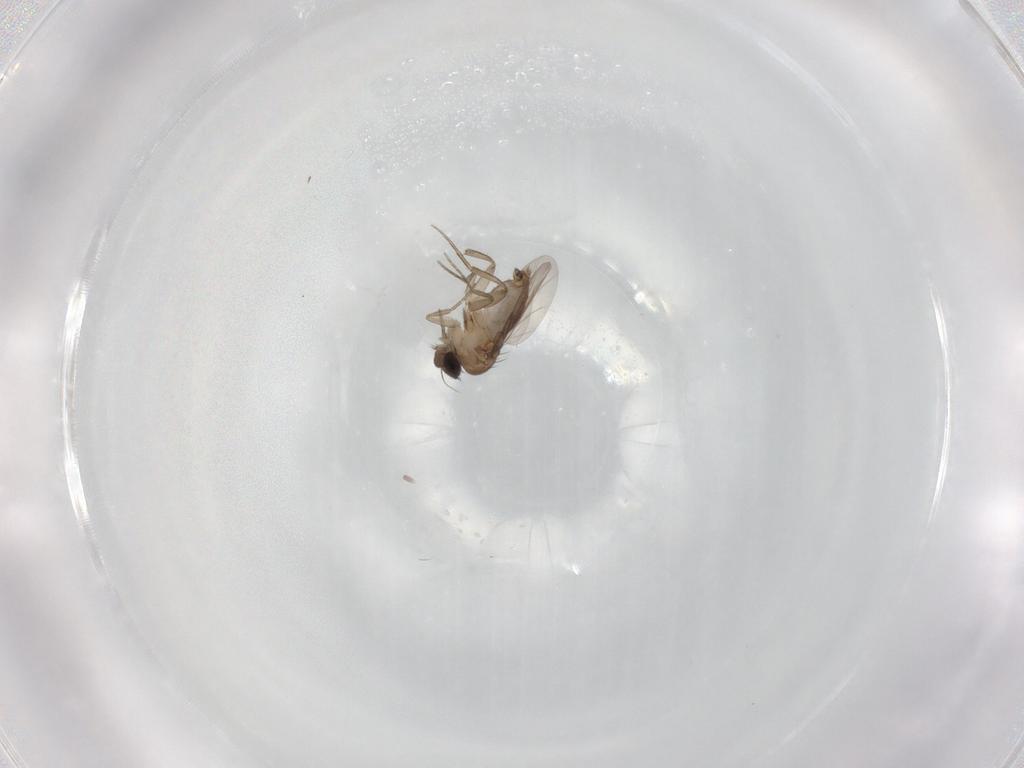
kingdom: Animalia
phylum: Arthropoda
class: Insecta
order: Diptera
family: Phoridae
